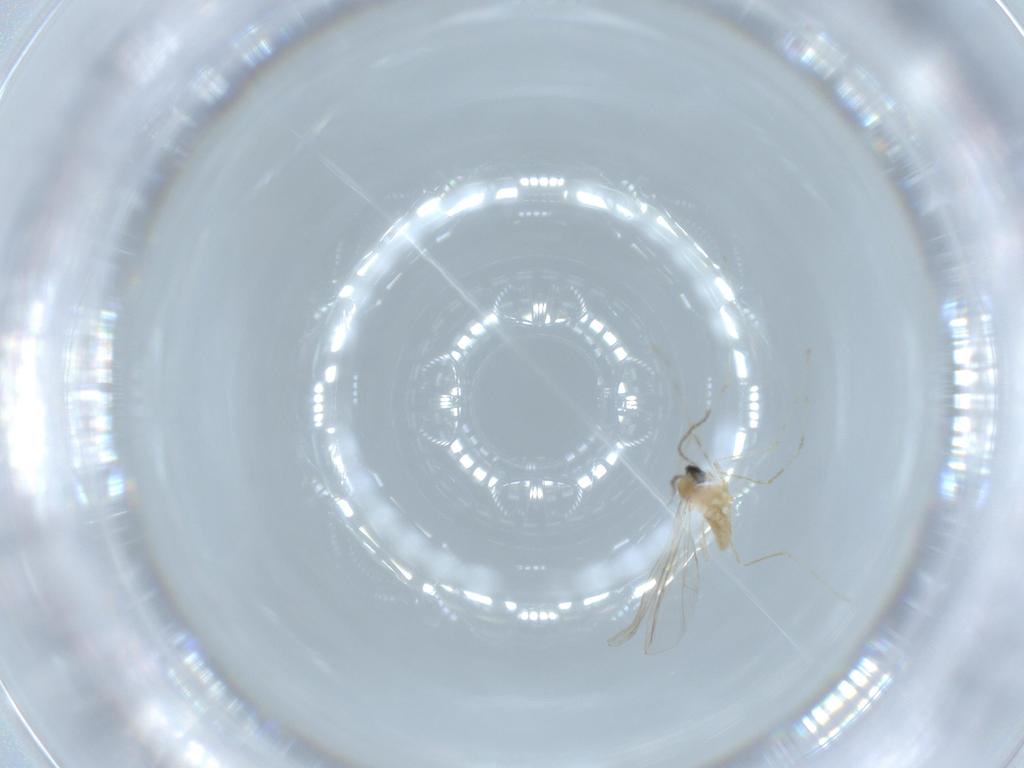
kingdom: Animalia
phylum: Arthropoda
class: Insecta
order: Diptera
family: Cecidomyiidae
